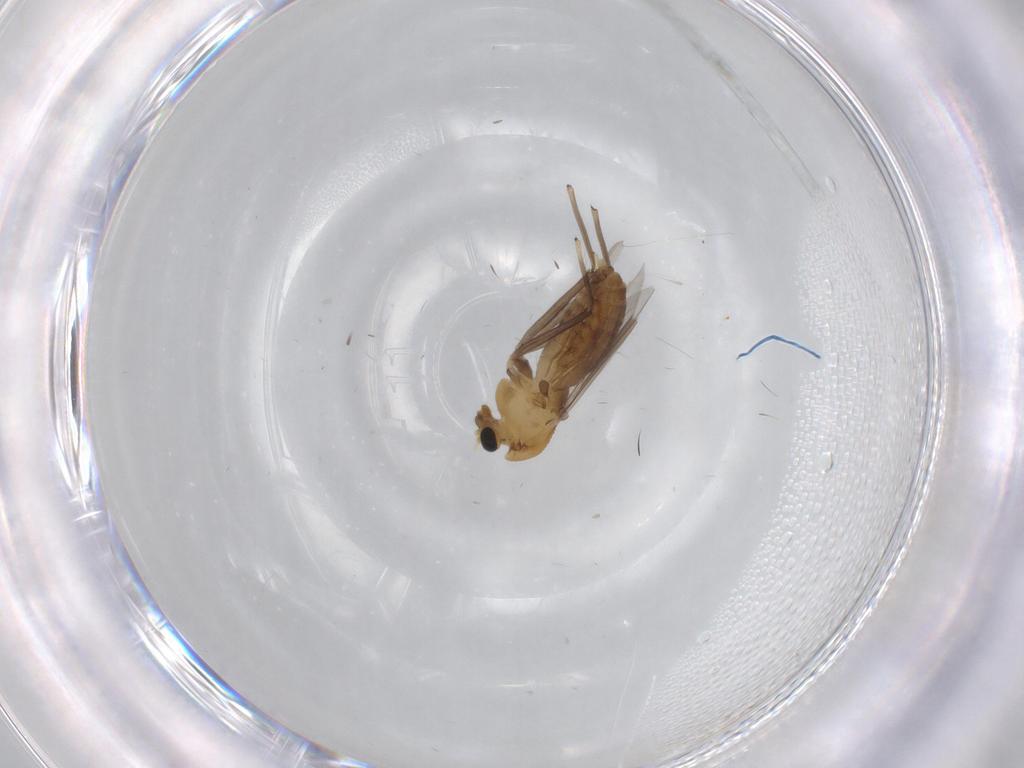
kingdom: Animalia
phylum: Arthropoda
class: Insecta
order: Diptera
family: Chironomidae
